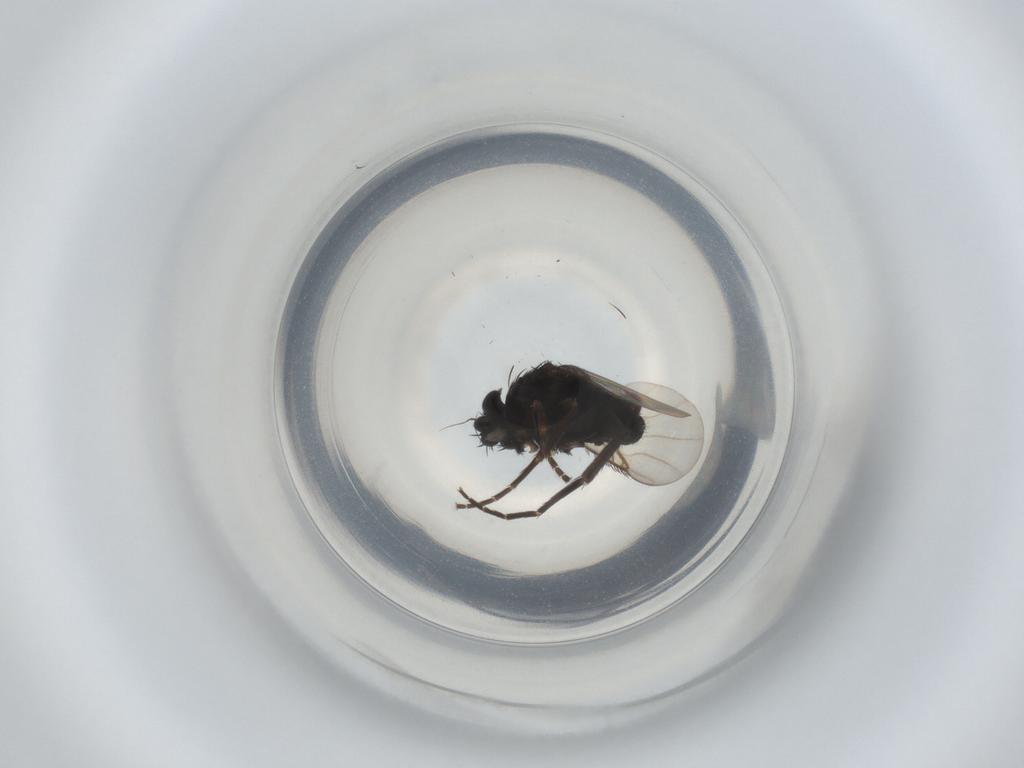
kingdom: Animalia
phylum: Arthropoda
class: Insecta
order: Diptera
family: Phoridae
